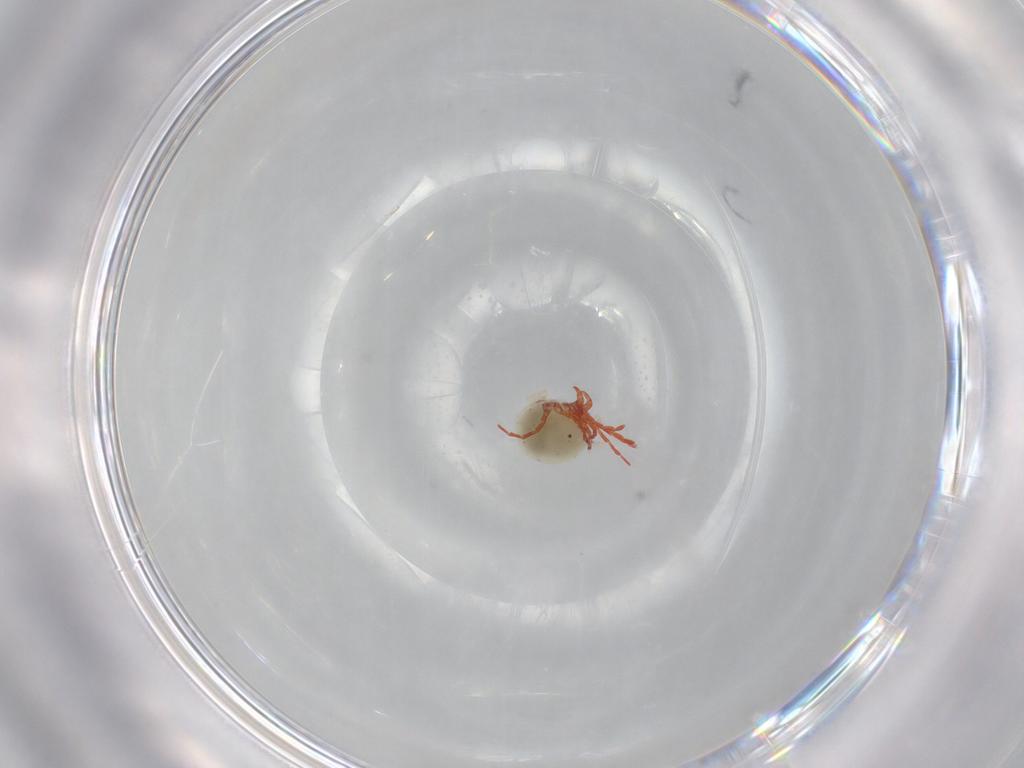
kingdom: Animalia
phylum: Arthropoda
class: Arachnida
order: Trombidiformes
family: Pionidae
